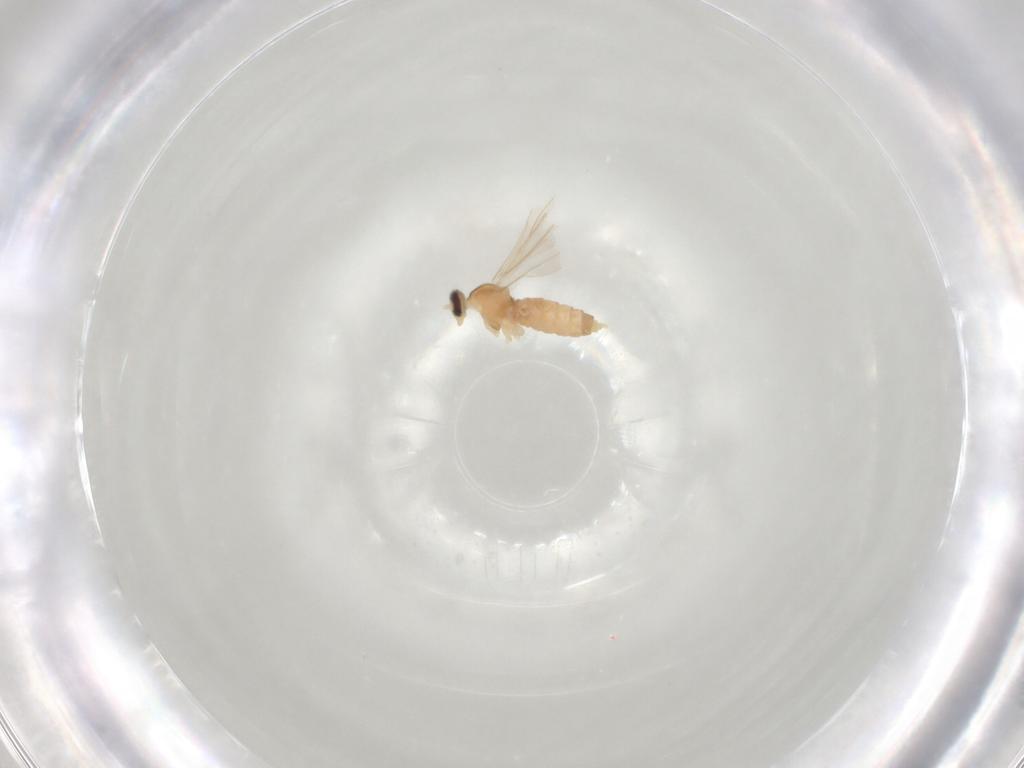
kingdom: Animalia
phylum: Arthropoda
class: Insecta
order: Diptera
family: Cecidomyiidae
